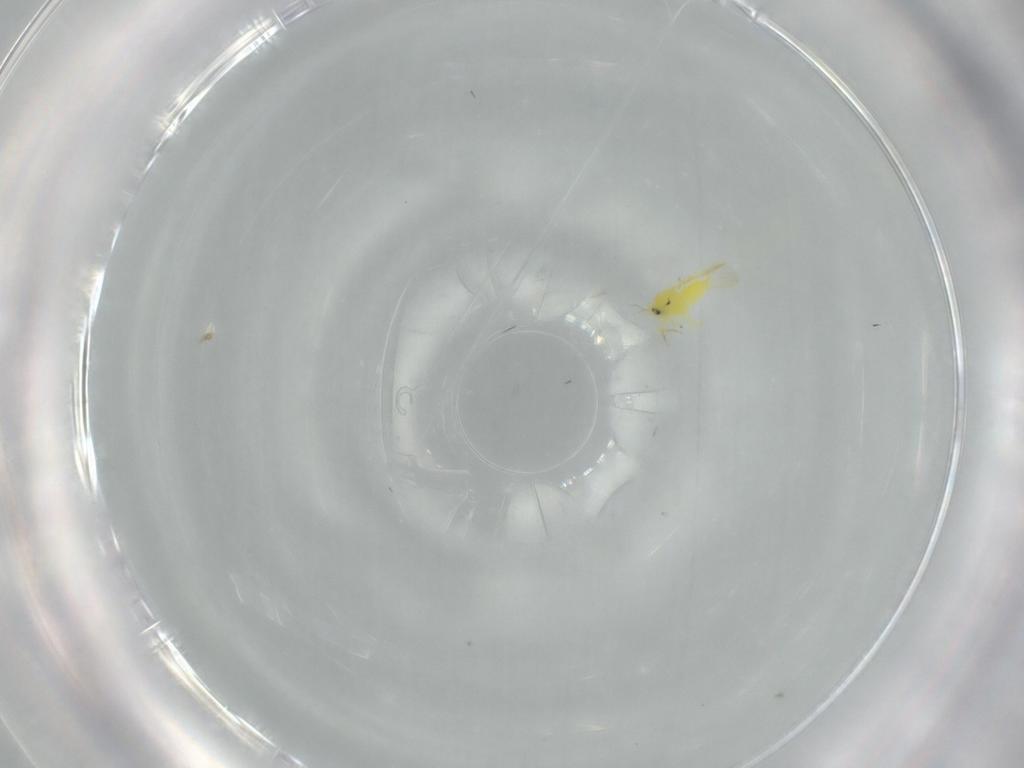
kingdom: Animalia
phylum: Arthropoda
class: Insecta
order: Hemiptera
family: Aleyrodidae
